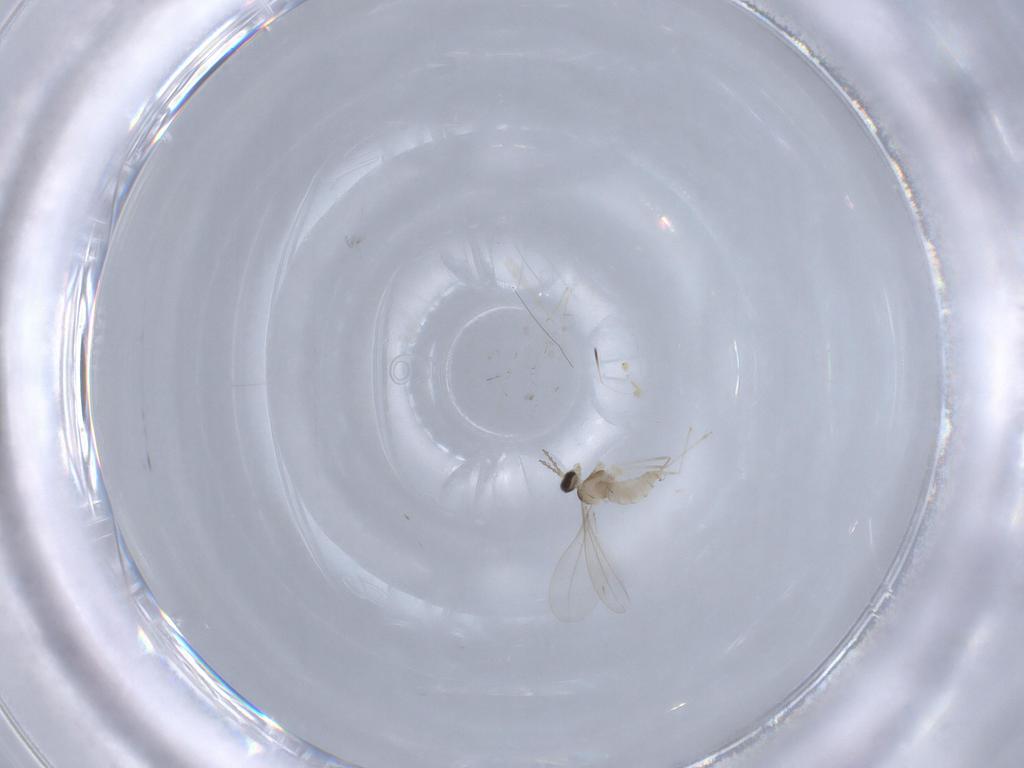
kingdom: Animalia
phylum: Arthropoda
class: Insecta
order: Diptera
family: Cecidomyiidae
